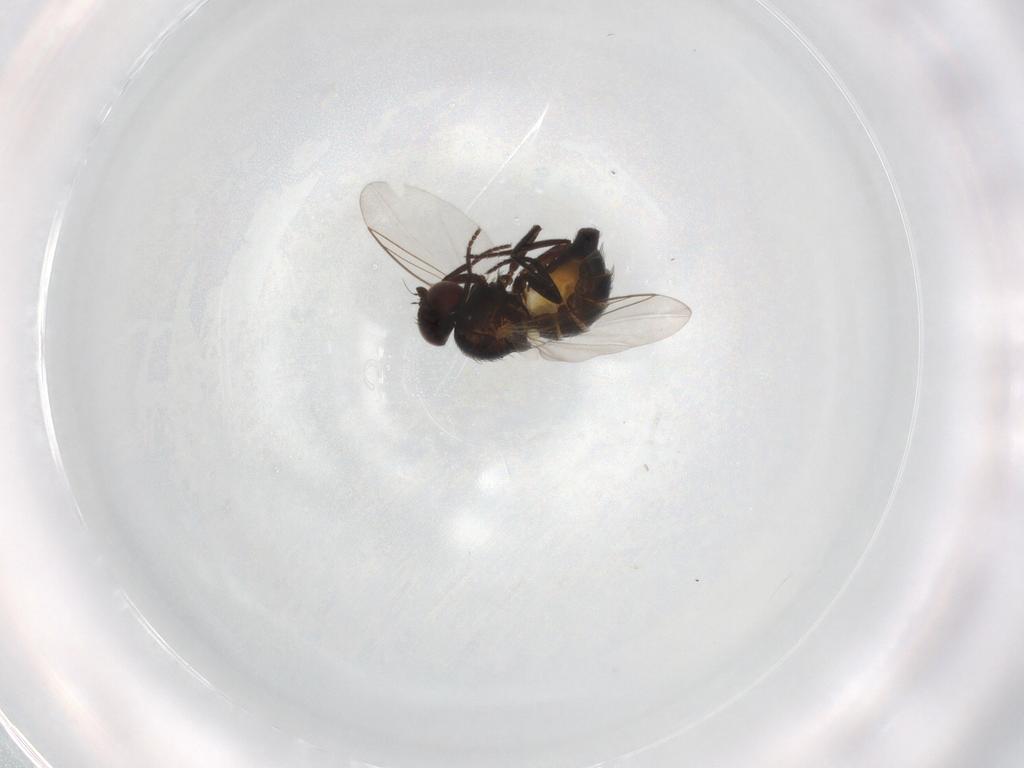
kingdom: Animalia
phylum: Arthropoda
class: Insecta
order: Diptera
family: Agromyzidae
